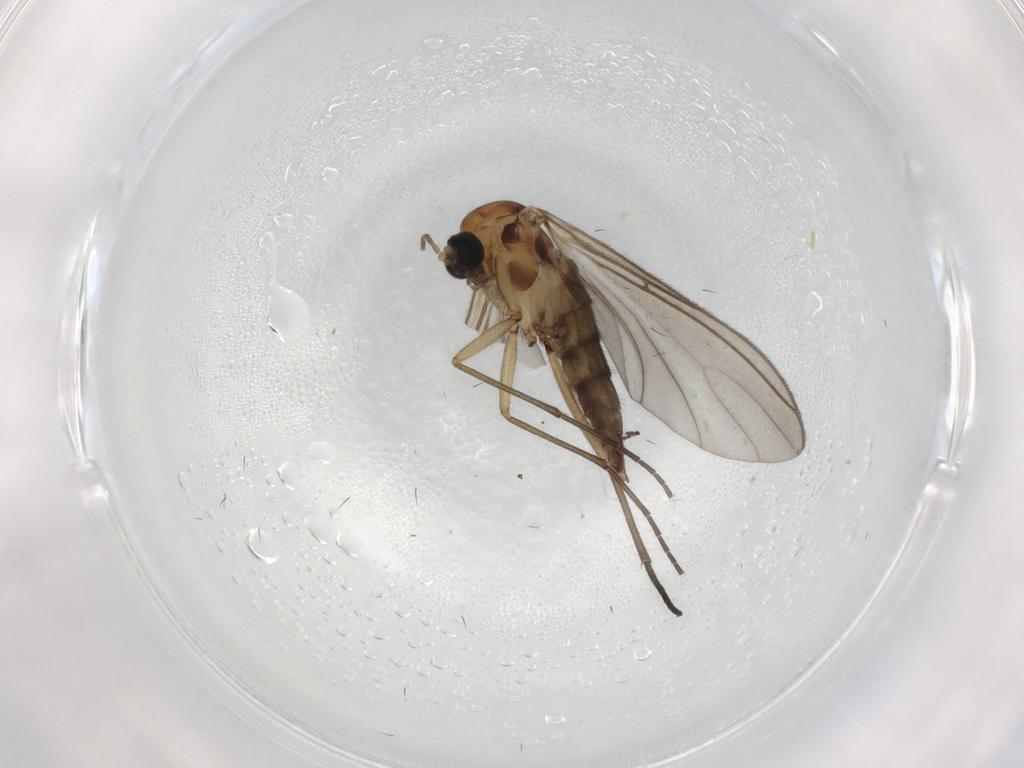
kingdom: Animalia
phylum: Arthropoda
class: Insecta
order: Diptera
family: Sciaridae
